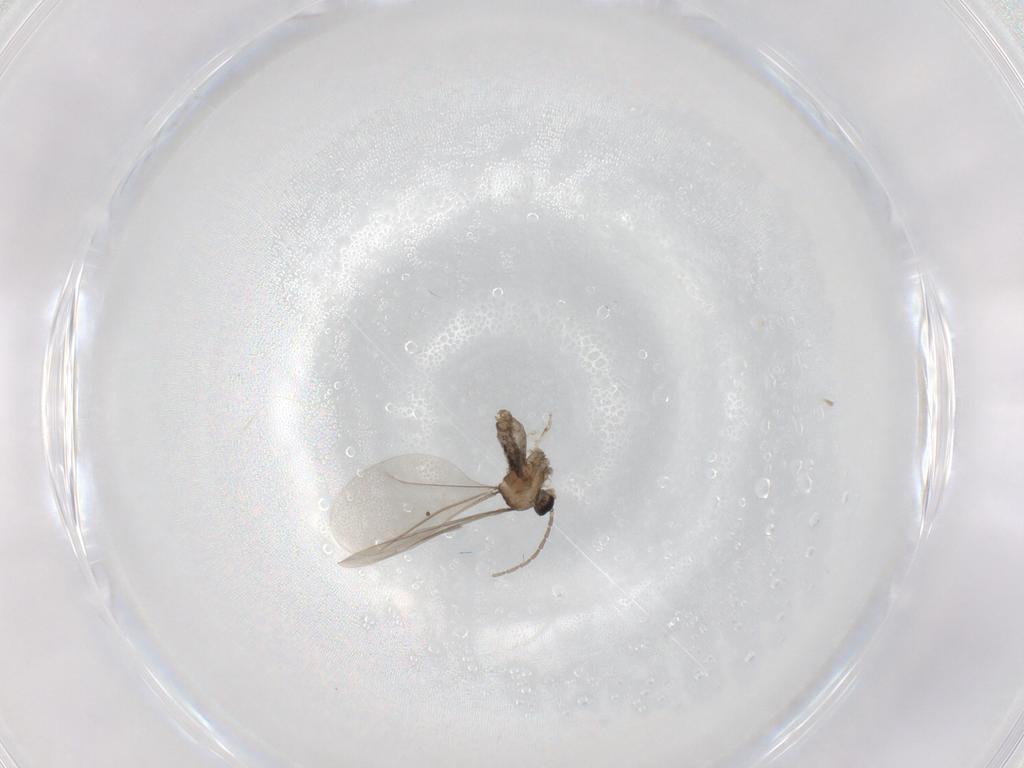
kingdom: Animalia
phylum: Arthropoda
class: Insecta
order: Diptera
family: Cecidomyiidae
